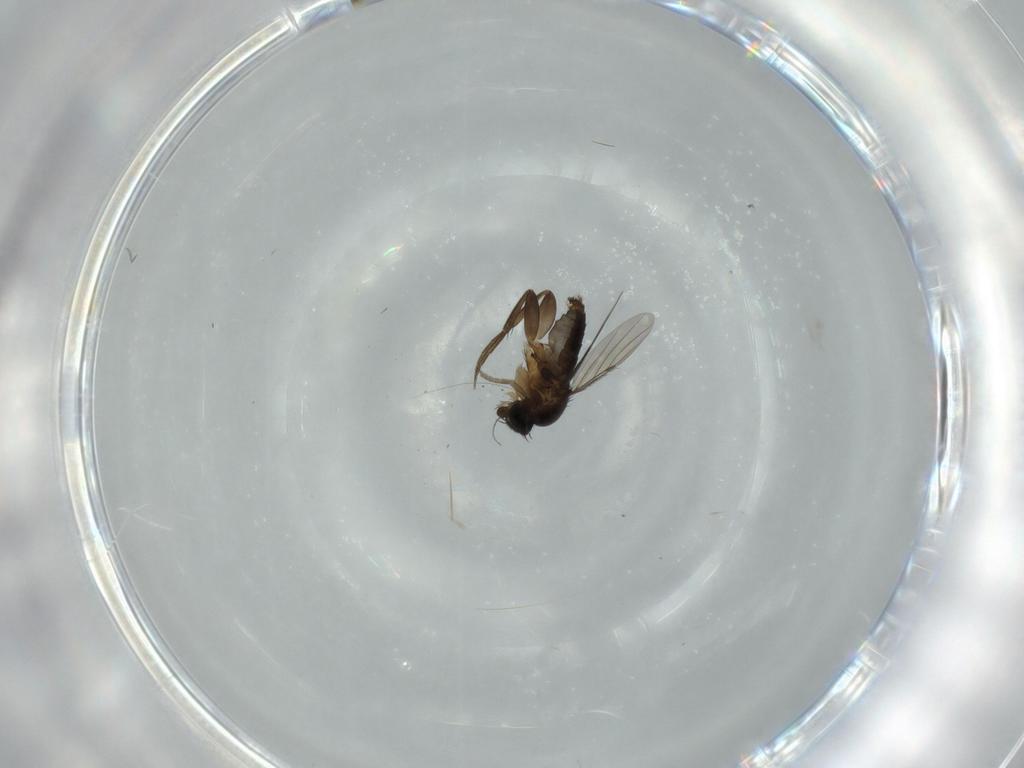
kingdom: Animalia
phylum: Arthropoda
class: Insecta
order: Diptera
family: Phoridae
